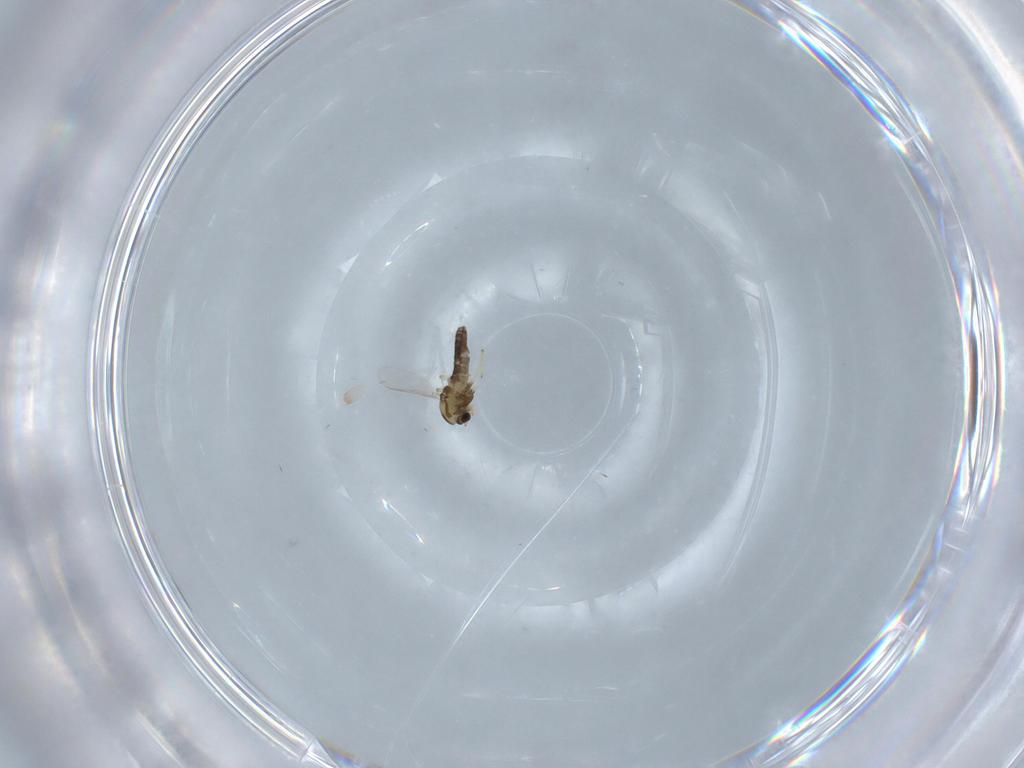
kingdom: Animalia
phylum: Arthropoda
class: Insecta
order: Diptera
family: Chironomidae
